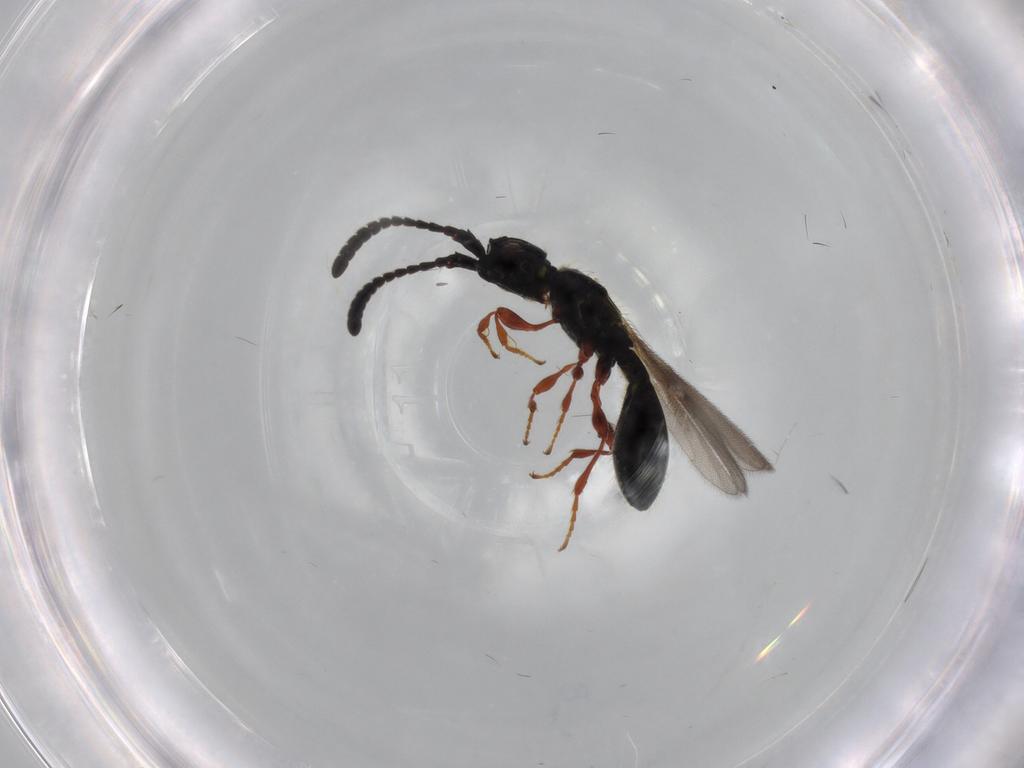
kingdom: Animalia
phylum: Arthropoda
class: Insecta
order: Hymenoptera
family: Diapriidae
